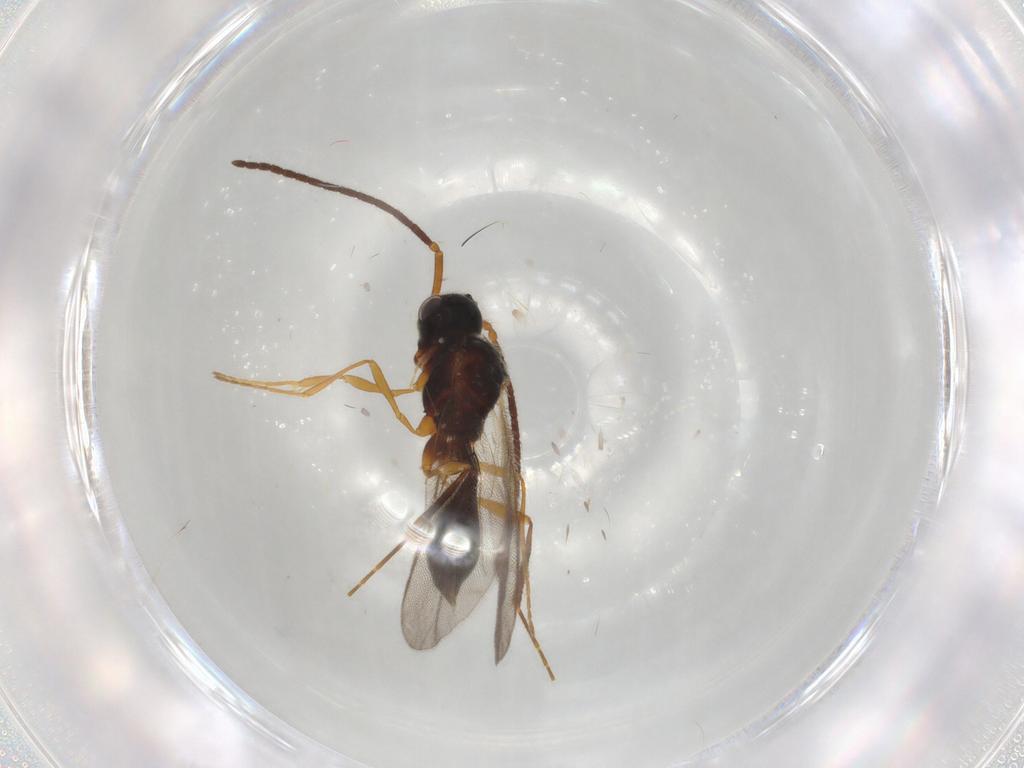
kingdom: Animalia
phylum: Arthropoda
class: Insecta
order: Hymenoptera
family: Diapriidae
